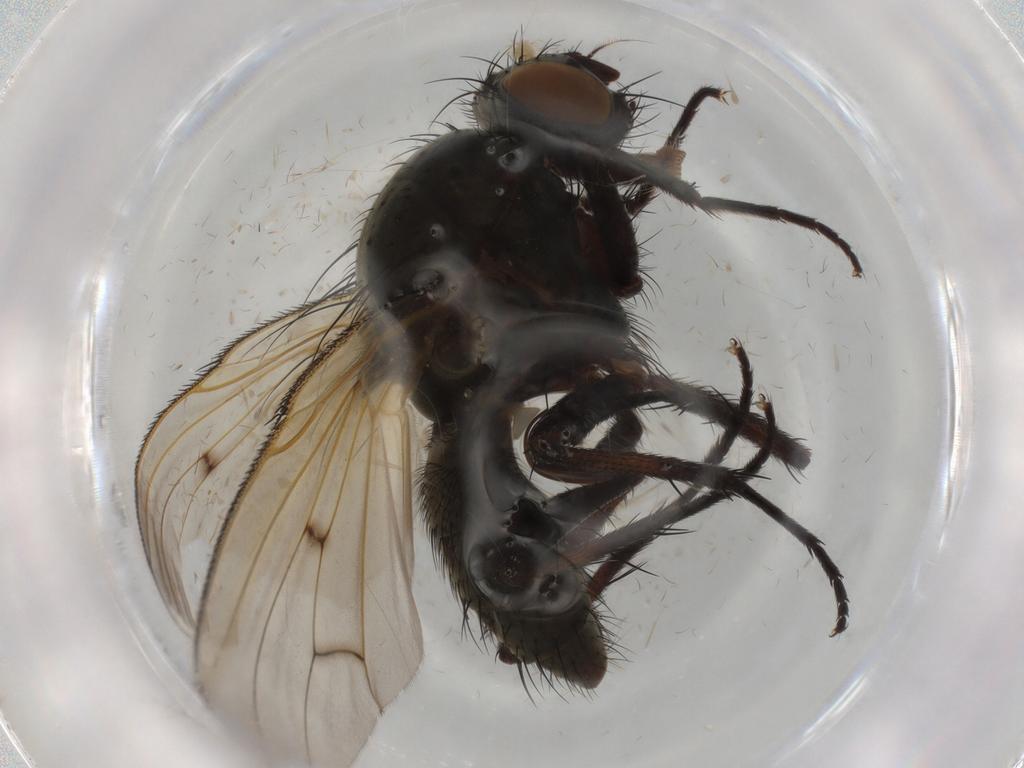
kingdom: Animalia
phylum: Arthropoda
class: Insecta
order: Diptera
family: Anthomyiidae
